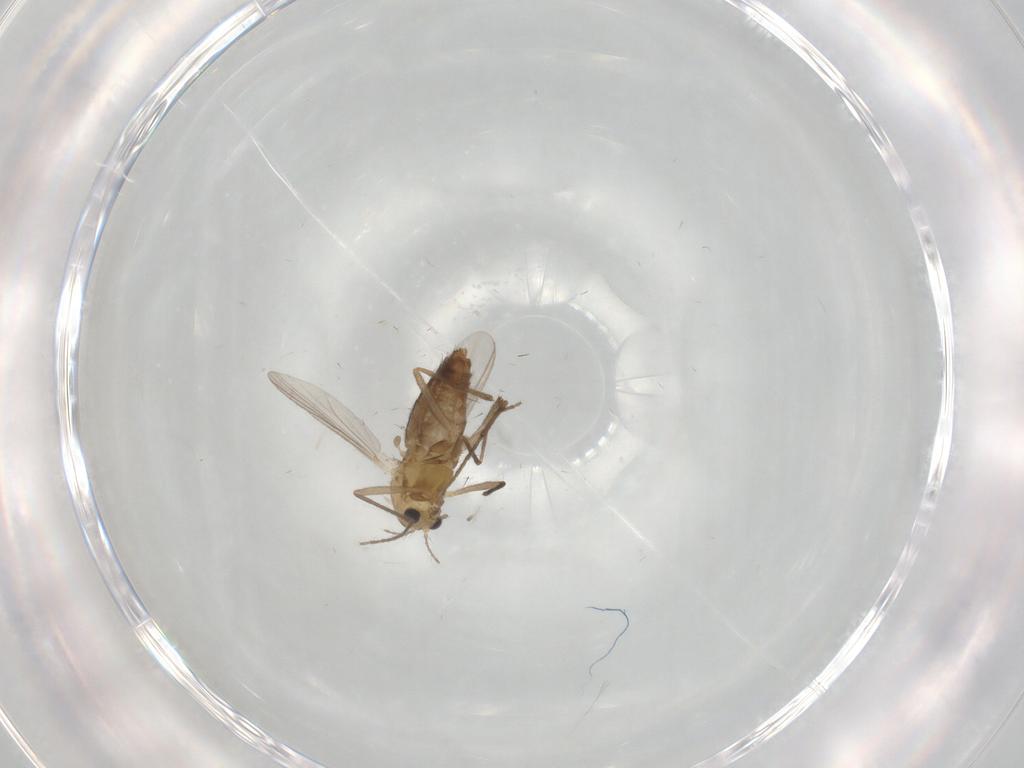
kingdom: Animalia
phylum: Arthropoda
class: Insecta
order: Diptera
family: Chironomidae
